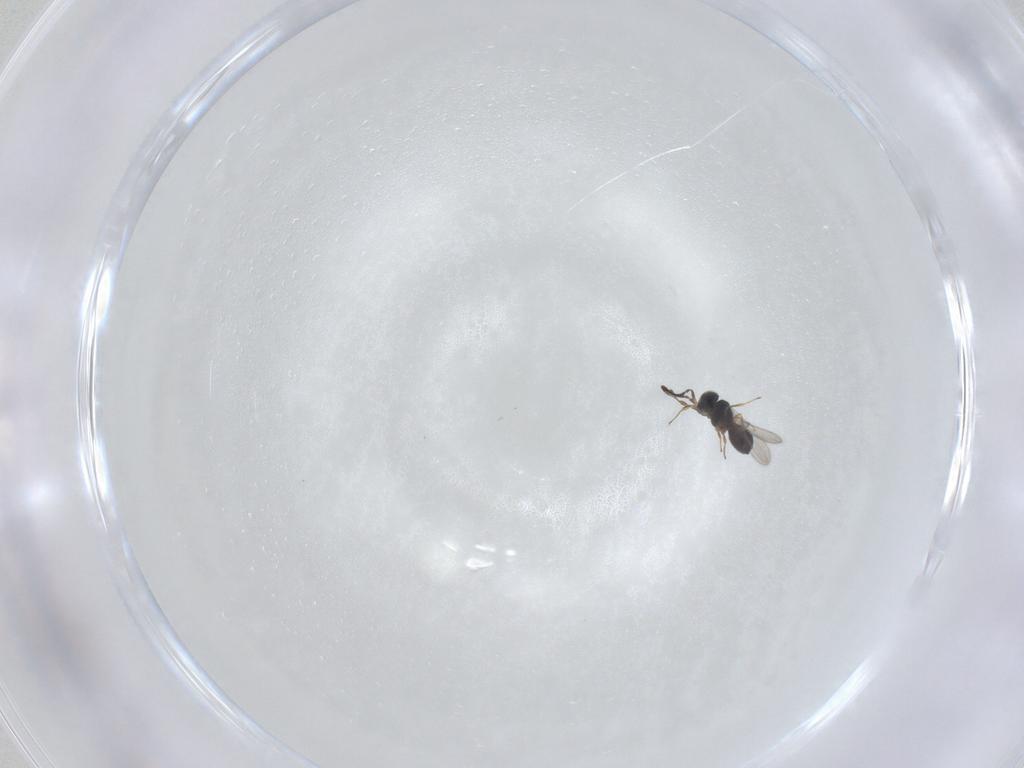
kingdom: Animalia
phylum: Arthropoda
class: Insecta
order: Hymenoptera
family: Scelionidae
